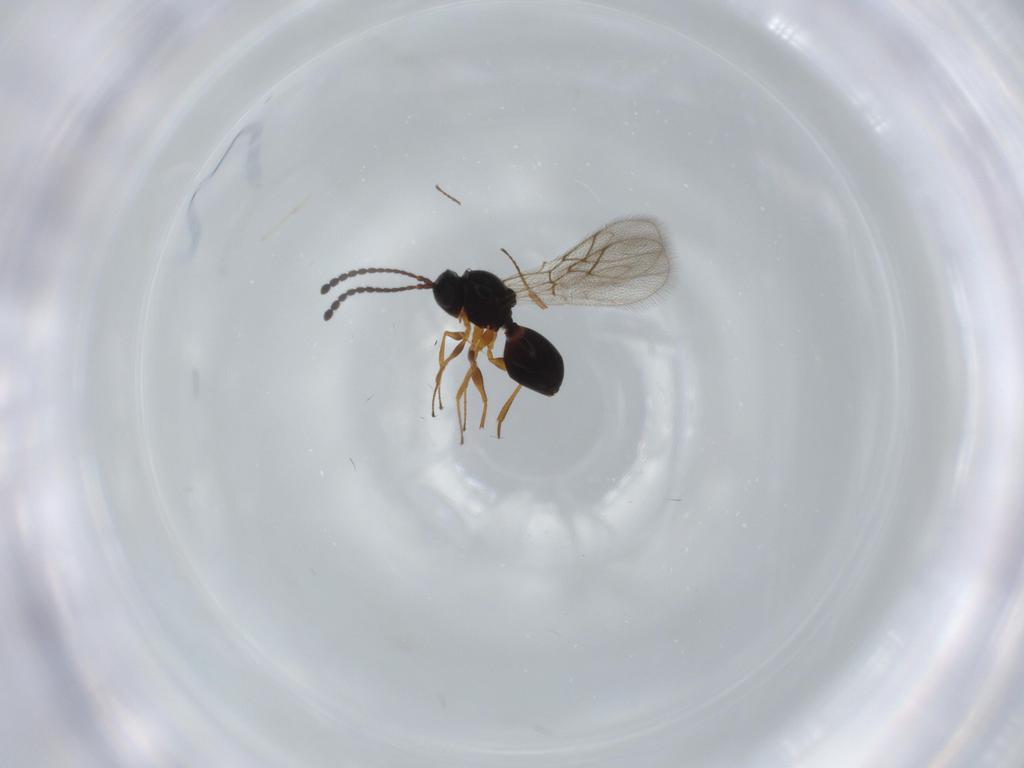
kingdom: Animalia
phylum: Arthropoda
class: Insecta
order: Hymenoptera
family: Figitidae
